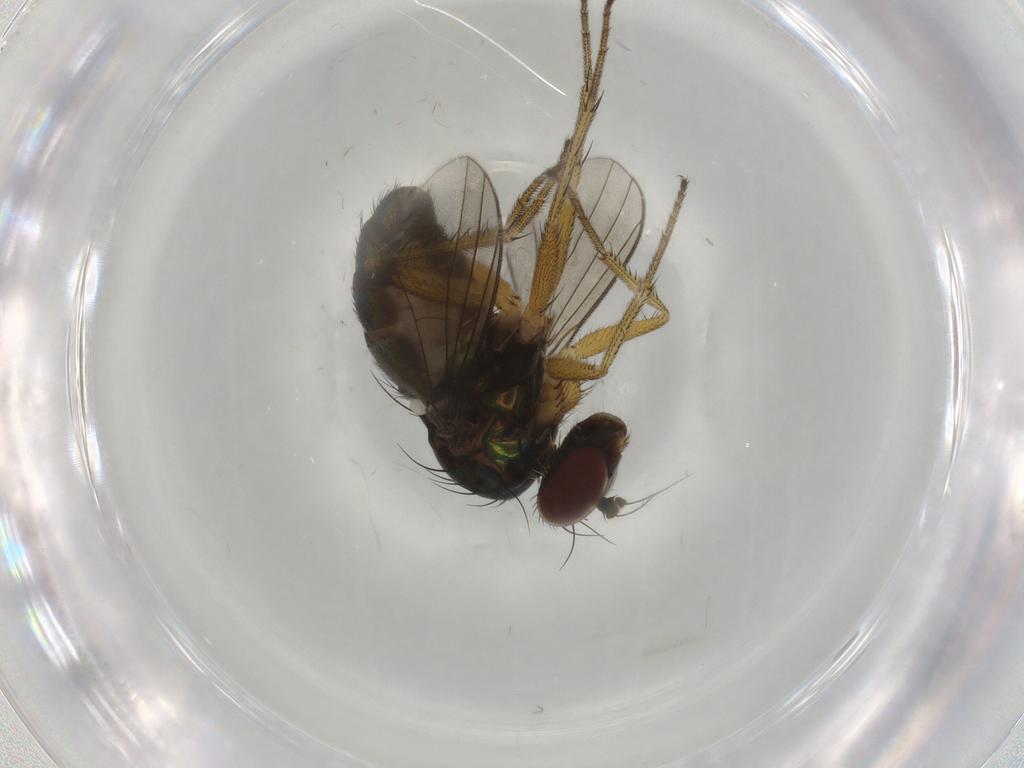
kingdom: Animalia
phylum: Arthropoda
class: Insecta
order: Diptera
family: Dolichopodidae
